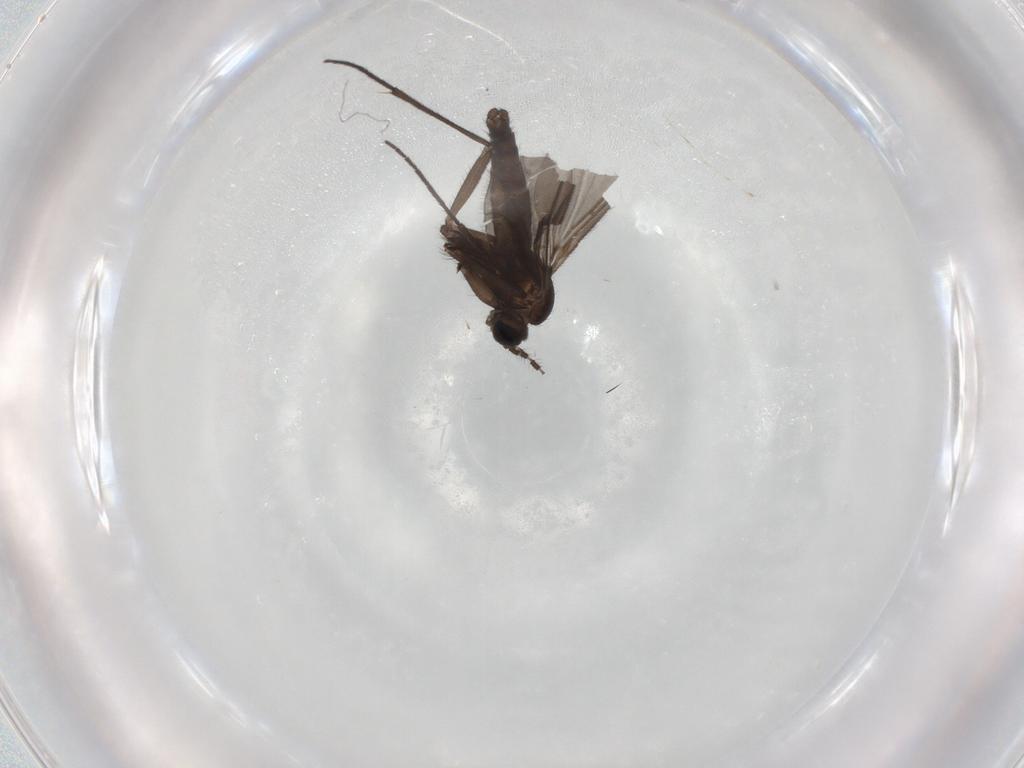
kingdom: Animalia
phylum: Arthropoda
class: Insecta
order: Diptera
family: Sciaridae
